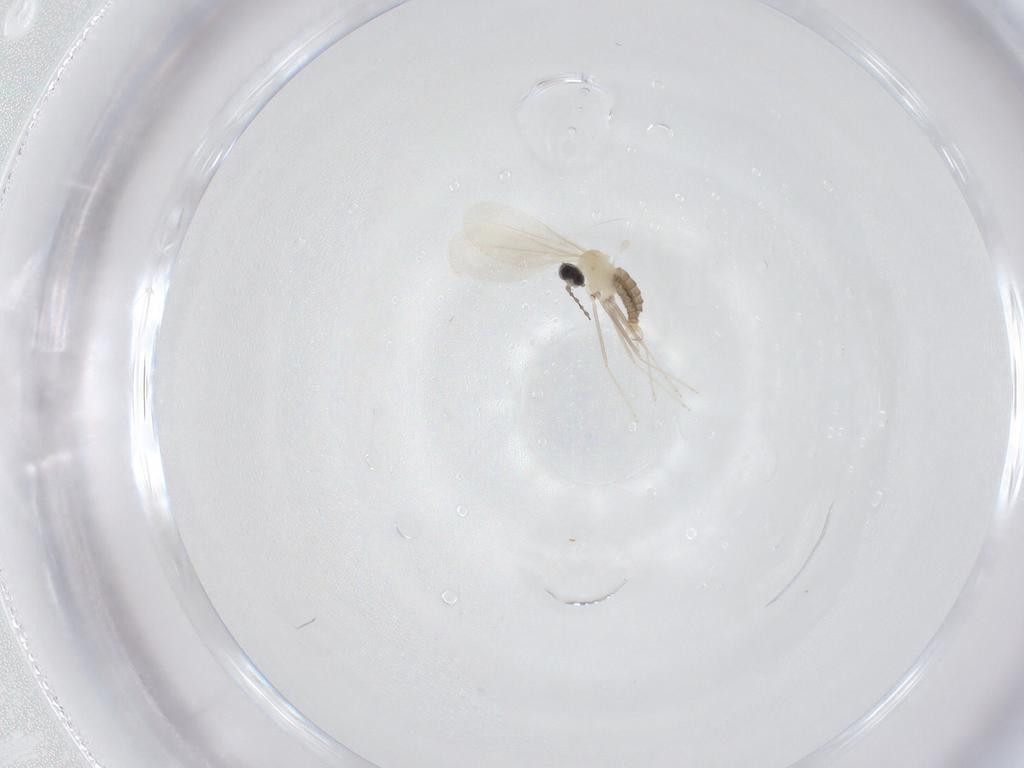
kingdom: Animalia
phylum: Arthropoda
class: Insecta
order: Diptera
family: Cecidomyiidae
